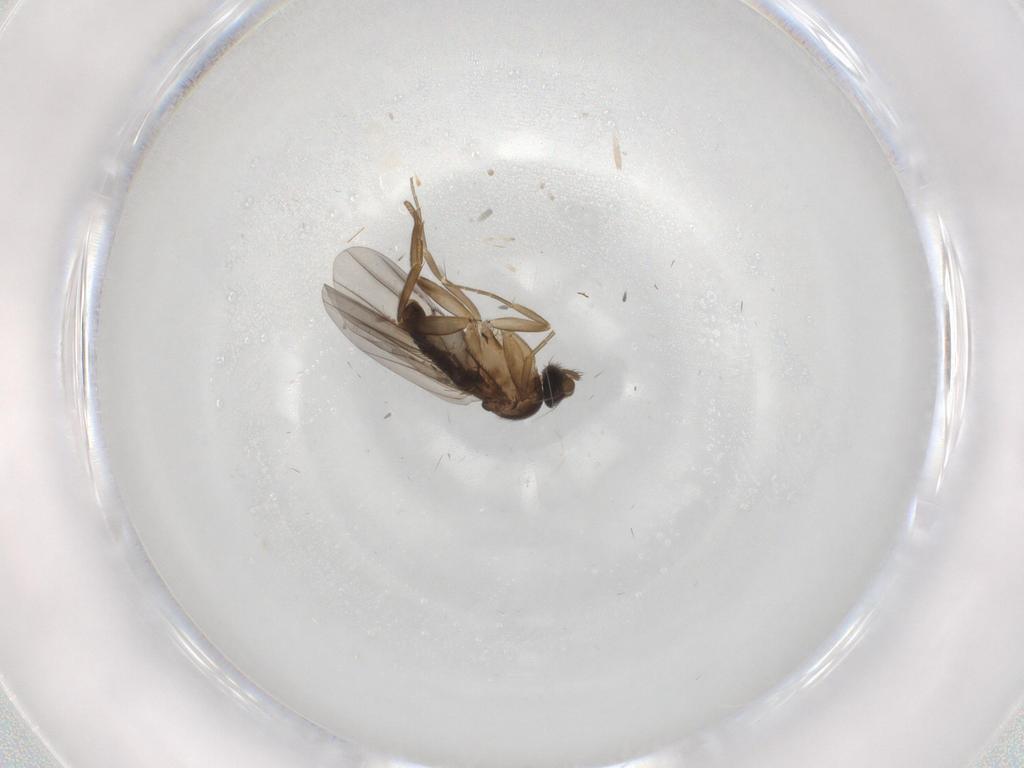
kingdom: Animalia
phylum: Arthropoda
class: Insecta
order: Diptera
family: Phoridae
